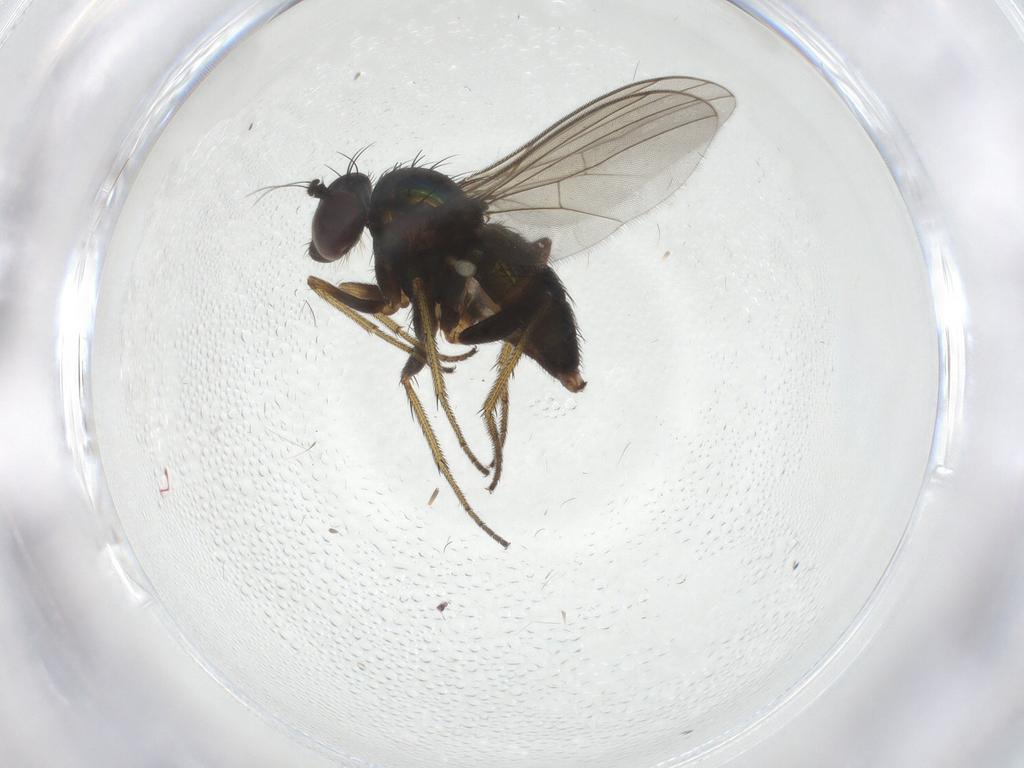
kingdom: Animalia
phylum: Arthropoda
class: Insecta
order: Diptera
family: Dolichopodidae
